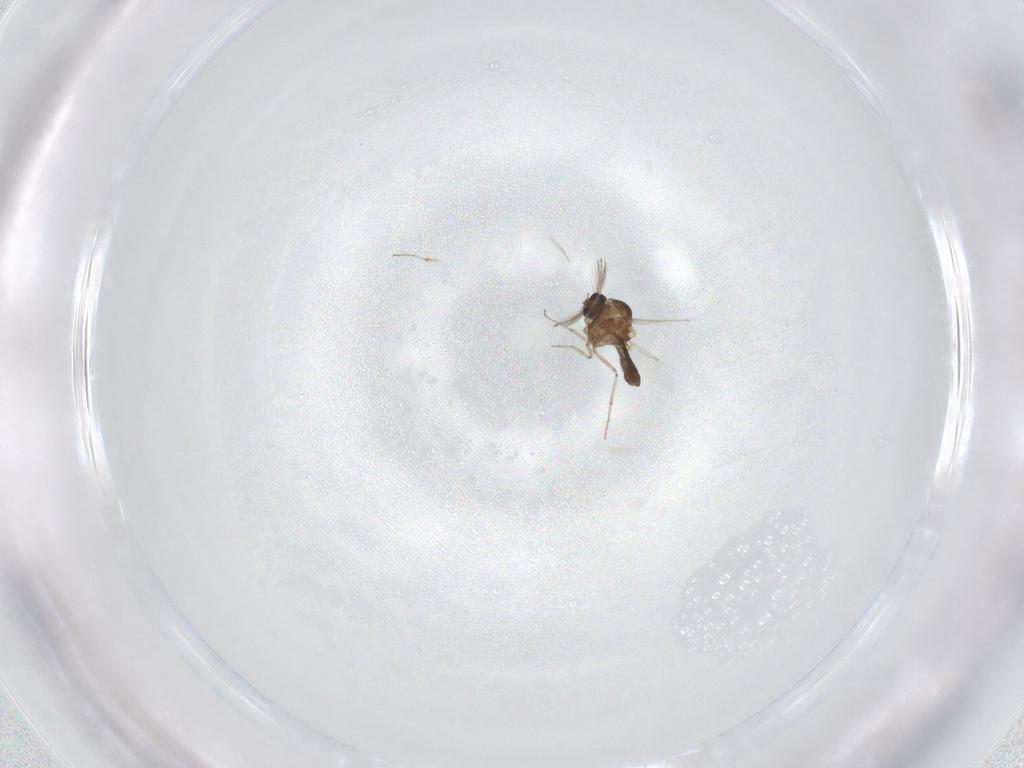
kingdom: Animalia
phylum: Arthropoda
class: Insecta
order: Diptera
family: Ceratopogonidae
